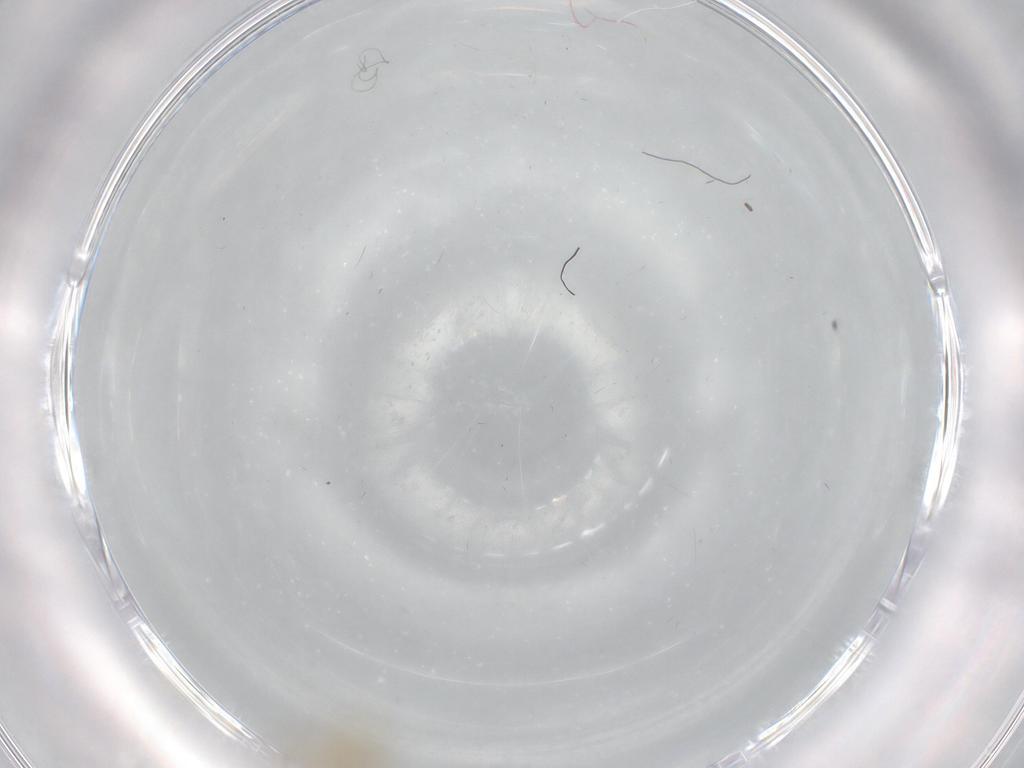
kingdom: Animalia
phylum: Arthropoda
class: Insecta
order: Diptera
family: Sciaridae
